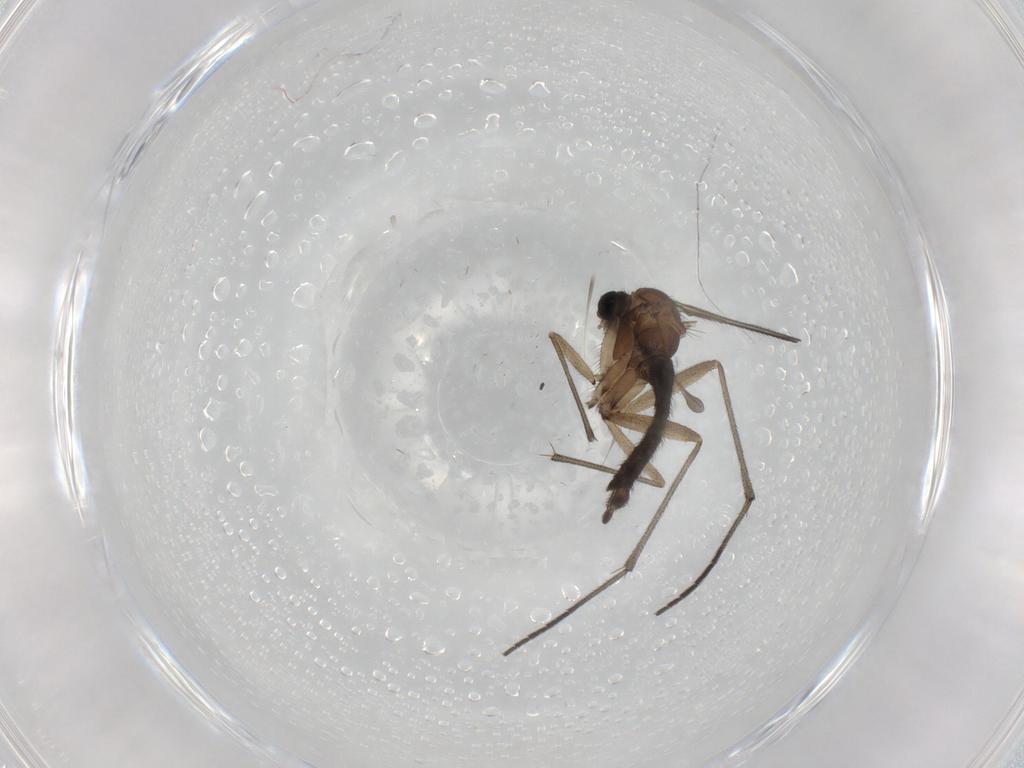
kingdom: Animalia
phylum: Arthropoda
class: Insecta
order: Diptera
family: Sciaridae
